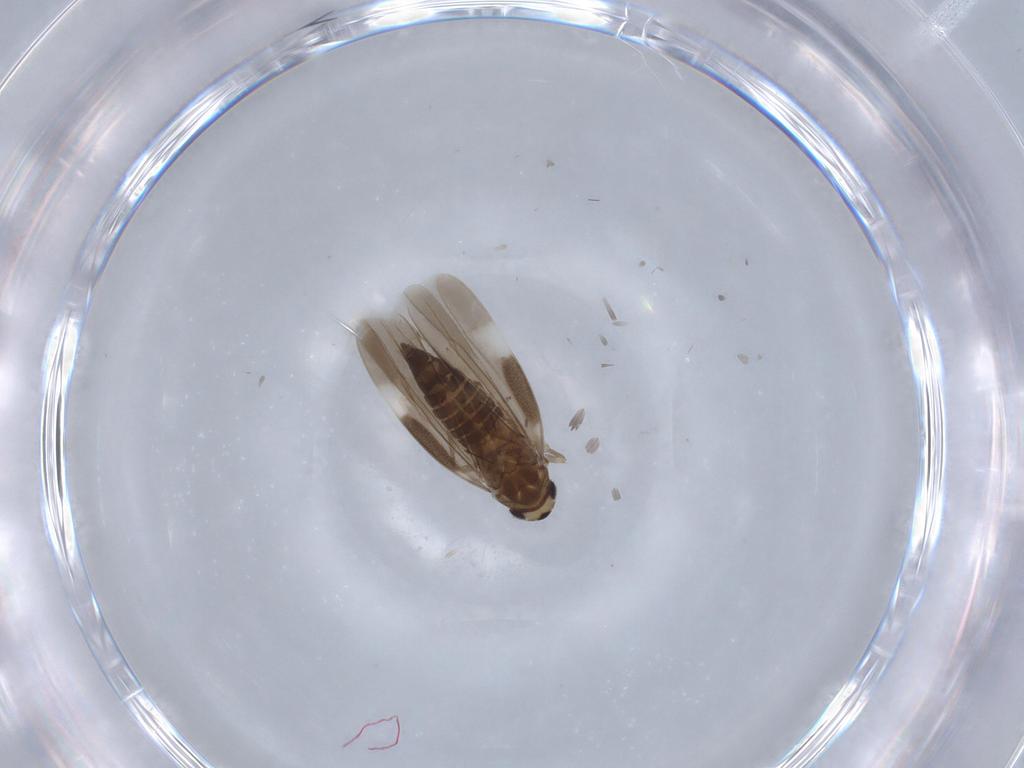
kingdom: Animalia
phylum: Arthropoda
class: Insecta
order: Hemiptera
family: Cicadellidae
